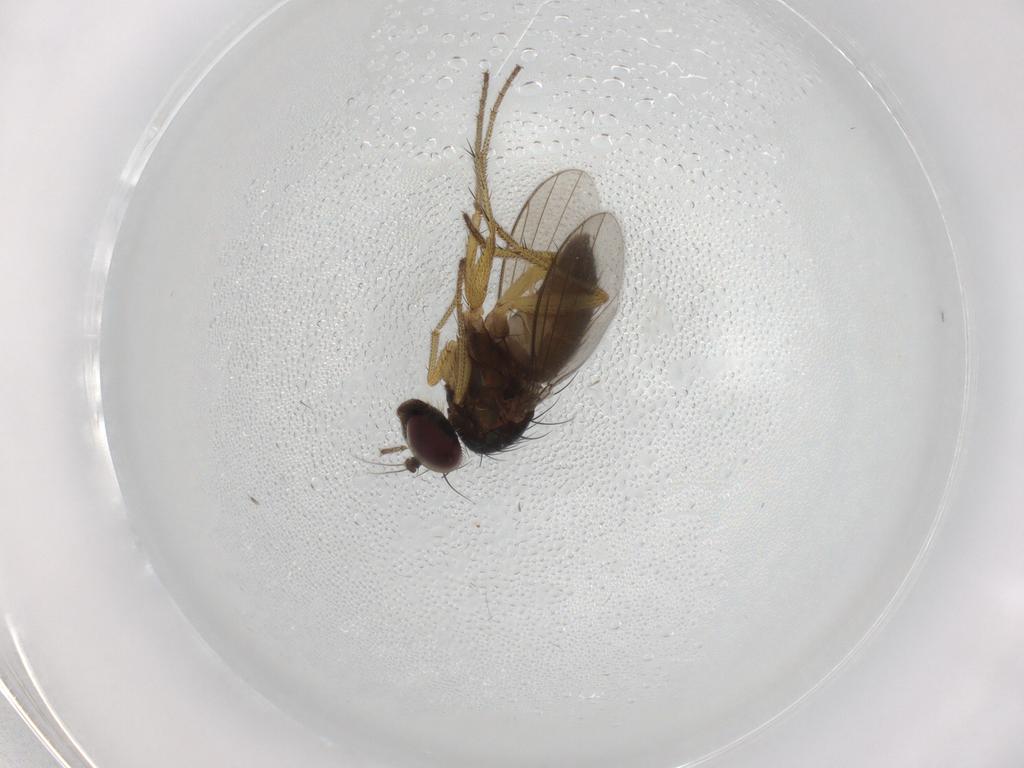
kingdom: Animalia
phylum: Arthropoda
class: Insecta
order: Diptera
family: Dolichopodidae
